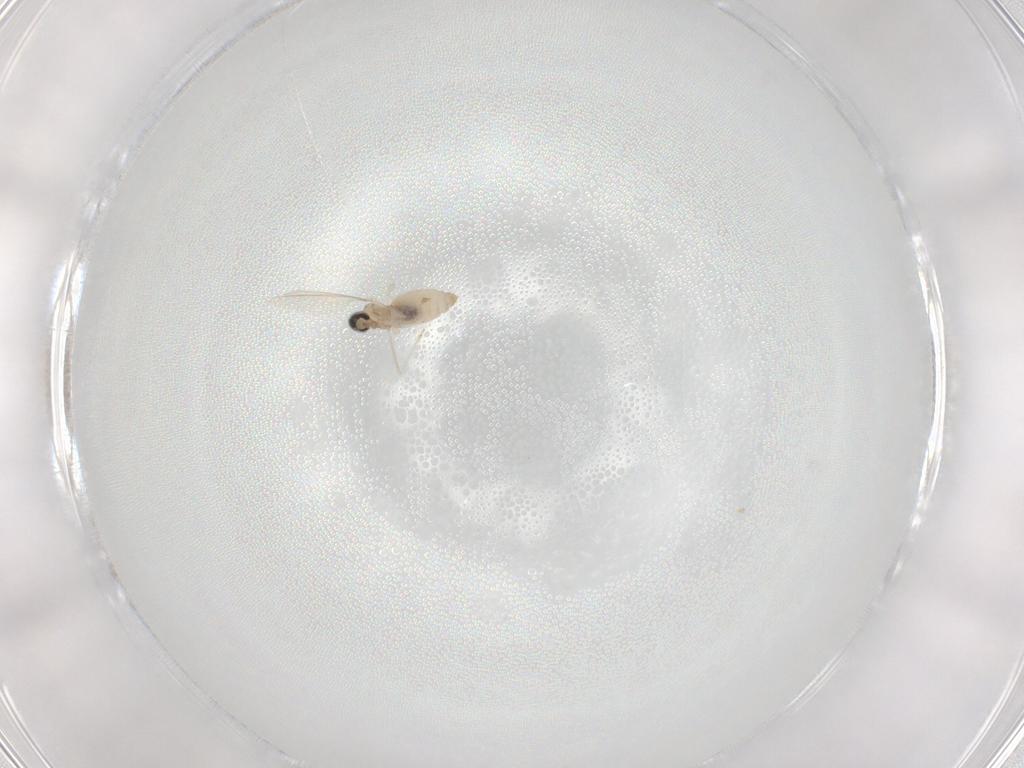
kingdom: Animalia
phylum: Arthropoda
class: Insecta
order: Diptera
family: Cecidomyiidae
